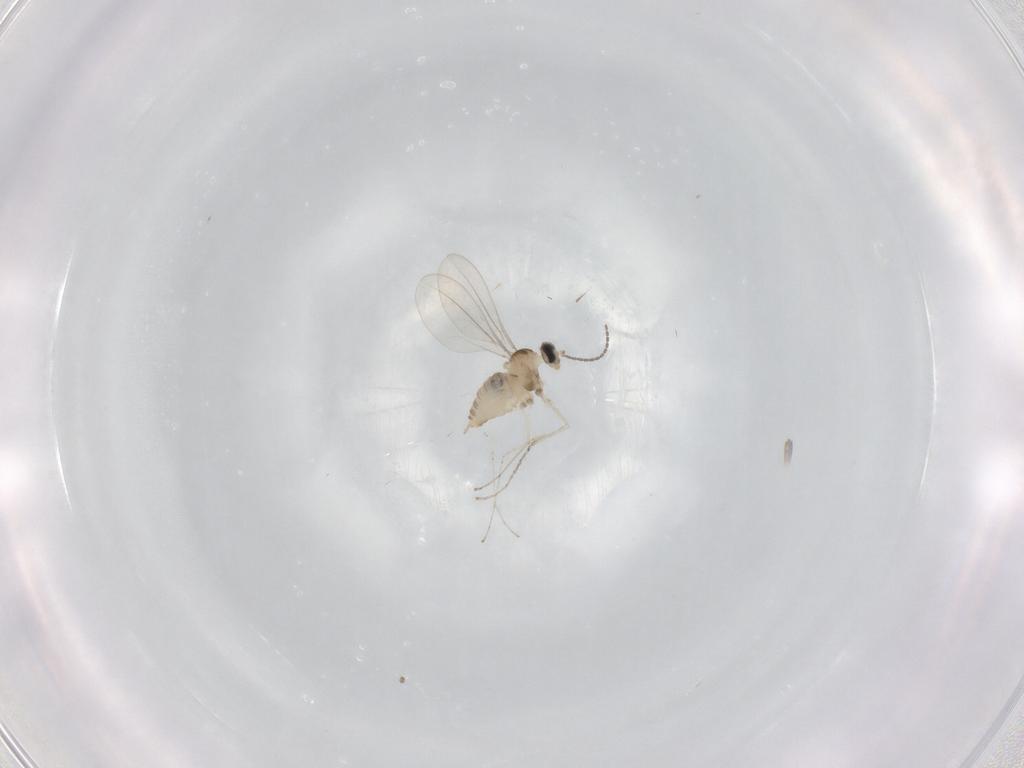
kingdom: Animalia
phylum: Arthropoda
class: Insecta
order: Diptera
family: Cecidomyiidae
